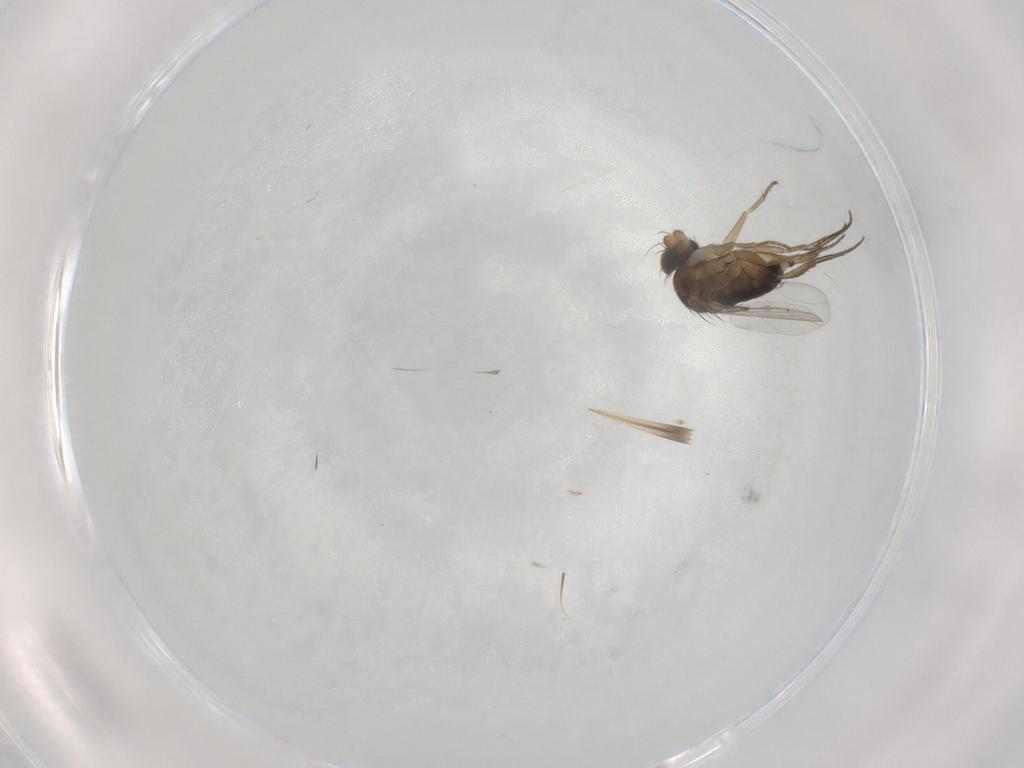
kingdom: Animalia
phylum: Arthropoda
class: Insecta
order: Diptera
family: Phoridae
